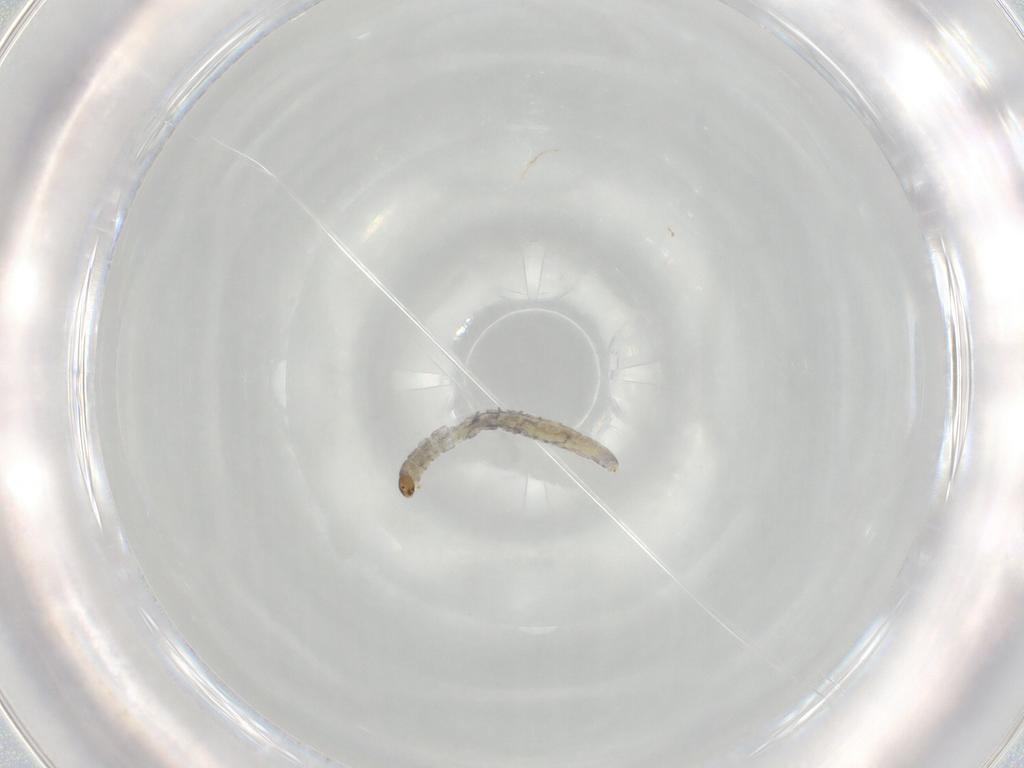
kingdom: Animalia
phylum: Arthropoda
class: Insecta
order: Diptera
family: Chironomidae
